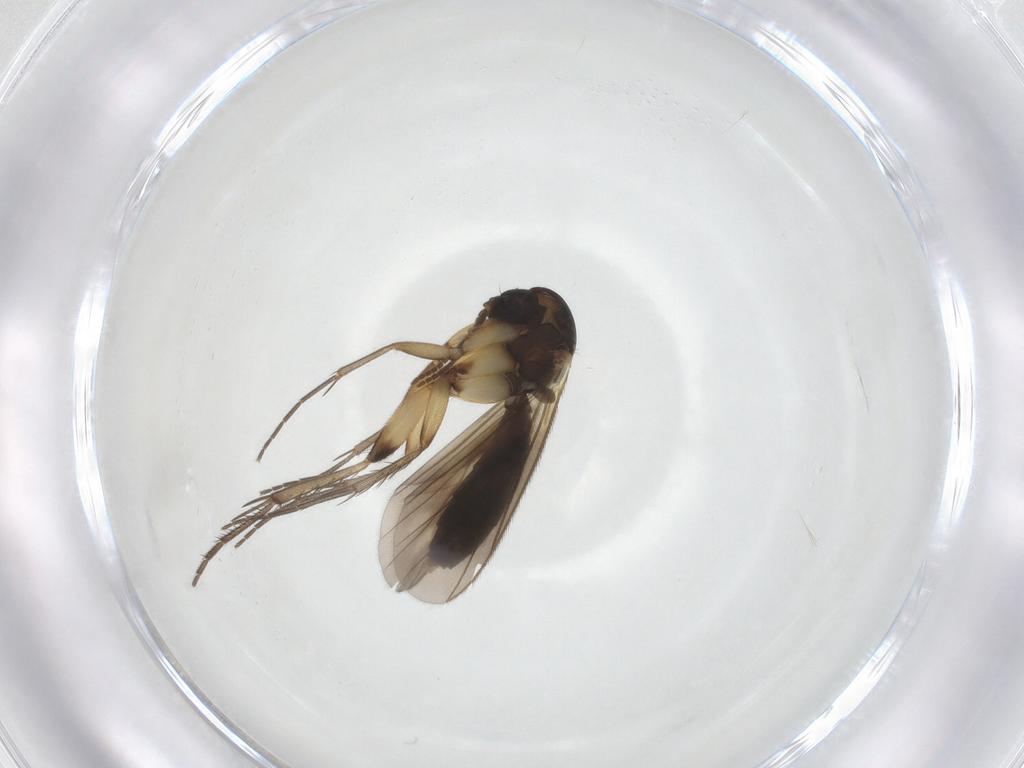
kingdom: Animalia
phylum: Arthropoda
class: Insecta
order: Diptera
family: Mycetophilidae
